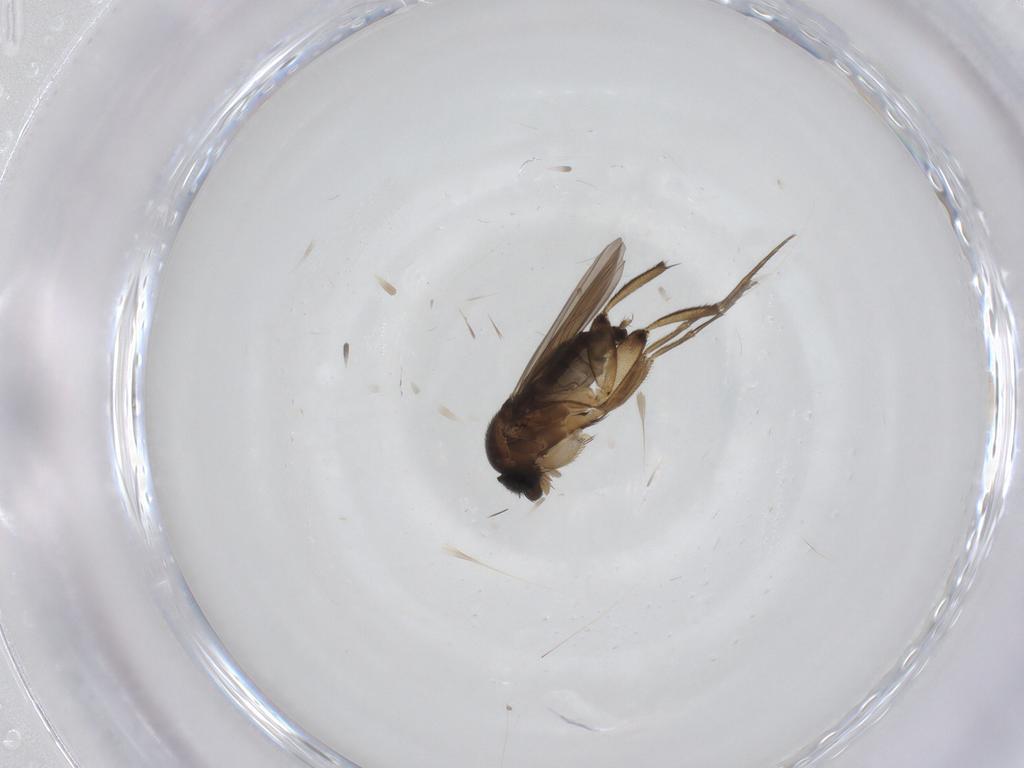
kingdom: Animalia
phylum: Arthropoda
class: Insecta
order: Diptera
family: Phoridae
